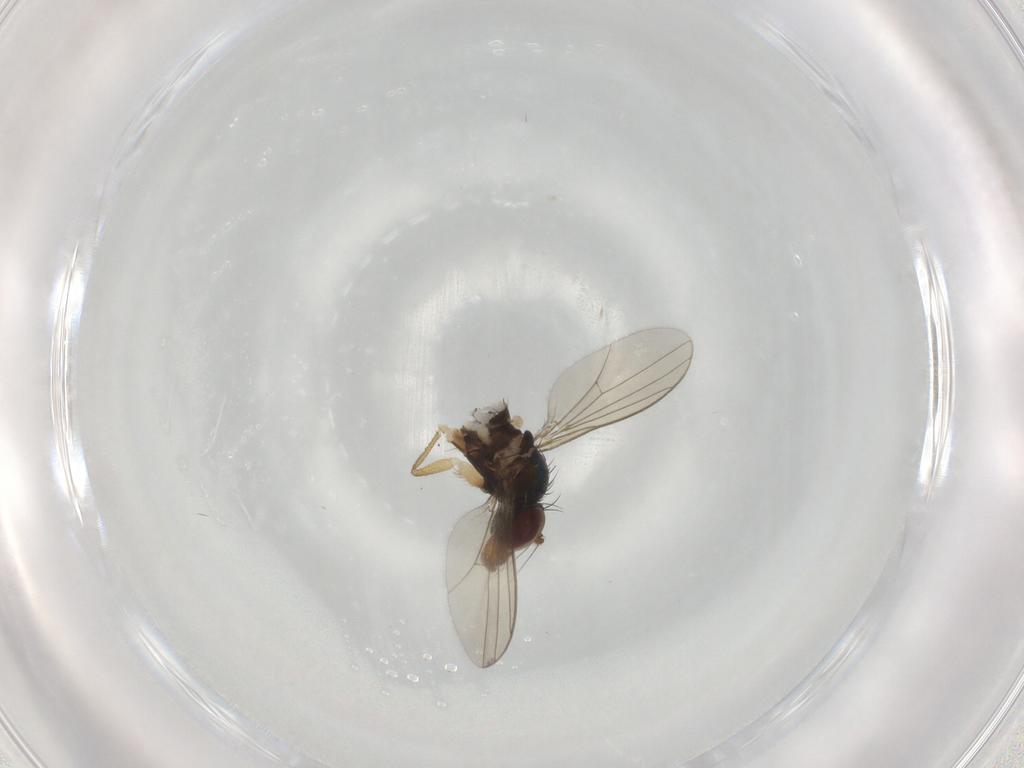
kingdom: Animalia
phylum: Arthropoda
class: Insecta
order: Diptera
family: Dolichopodidae
